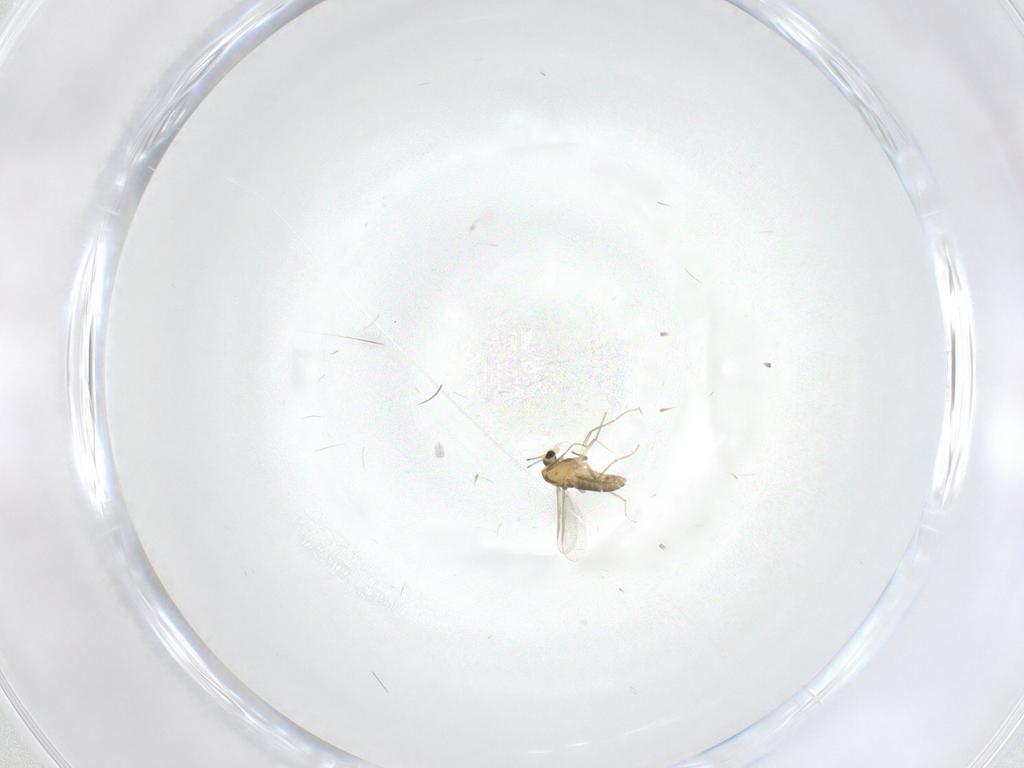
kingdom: Animalia
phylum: Arthropoda
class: Insecta
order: Diptera
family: Chironomidae
